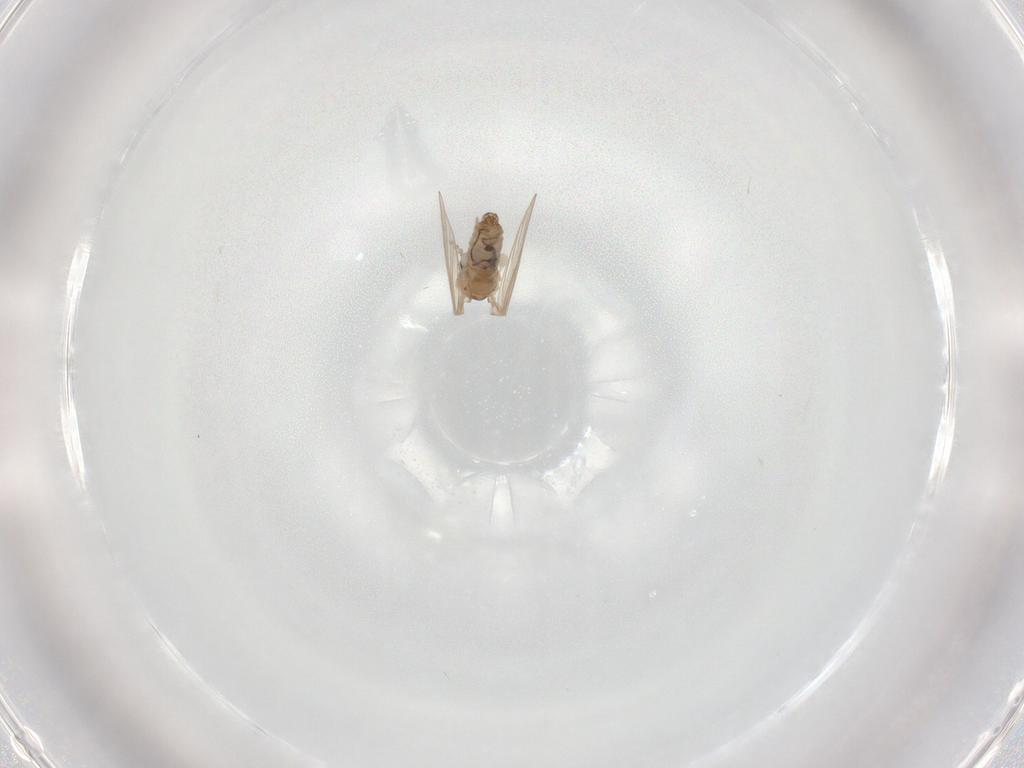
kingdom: Animalia
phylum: Arthropoda
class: Insecta
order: Diptera
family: Psychodidae
